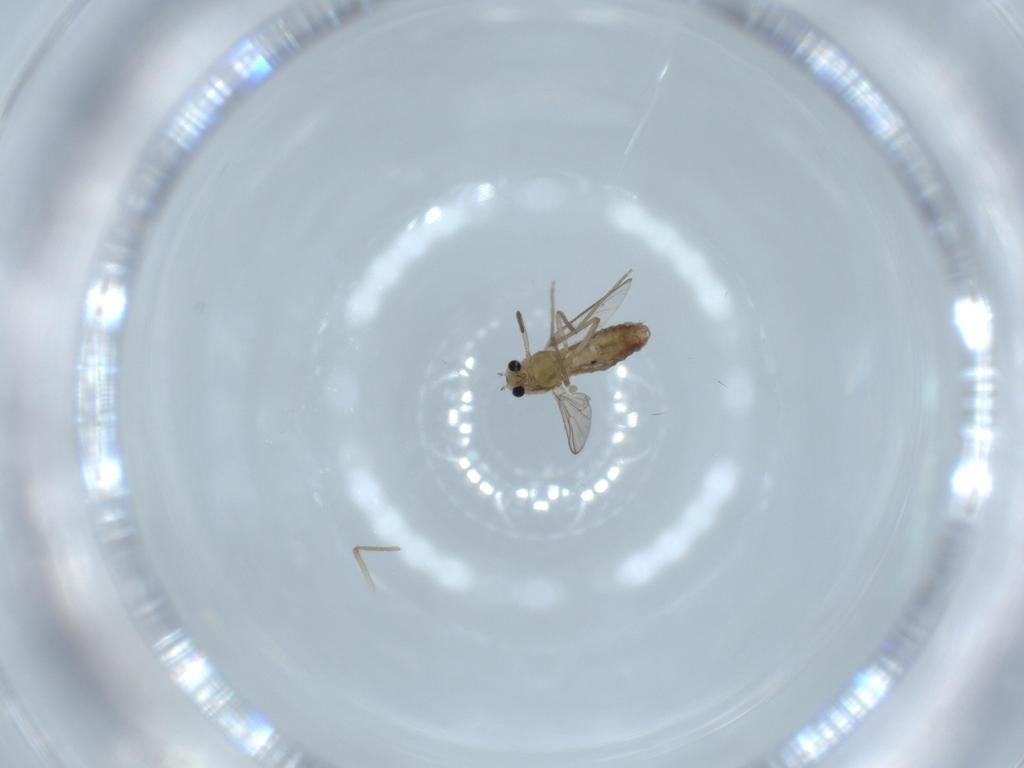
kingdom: Animalia
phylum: Arthropoda
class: Insecta
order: Diptera
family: Chironomidae
